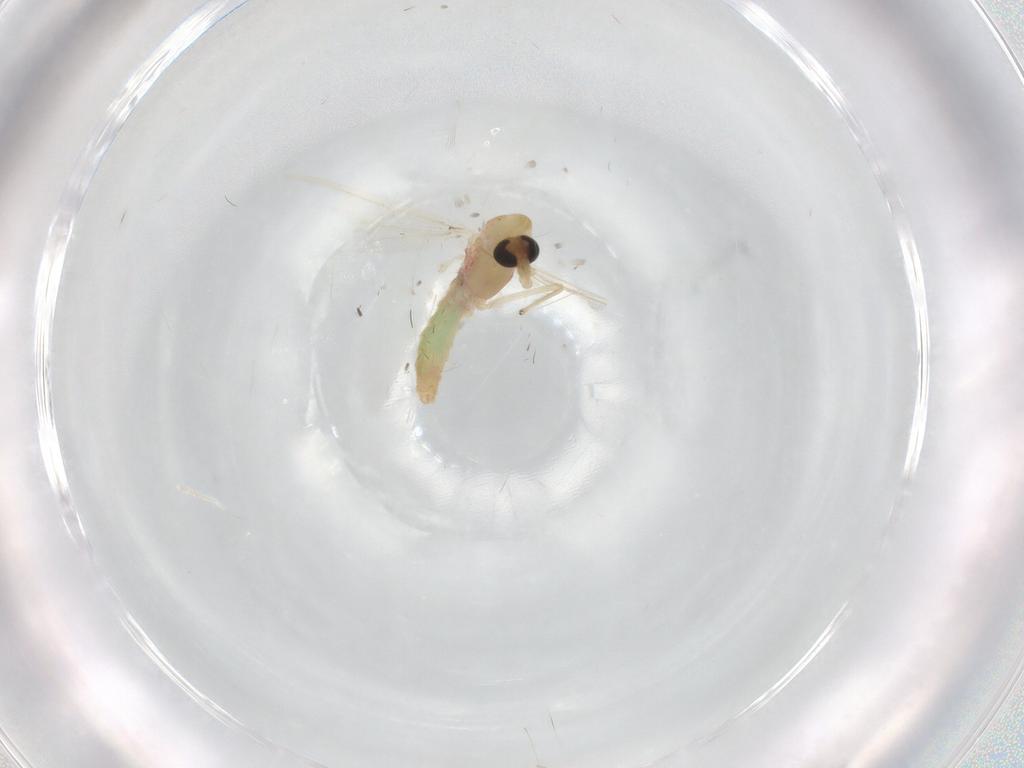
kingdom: Animalia
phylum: Arthropoda
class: Insecta
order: Diptera
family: Chironomidae
